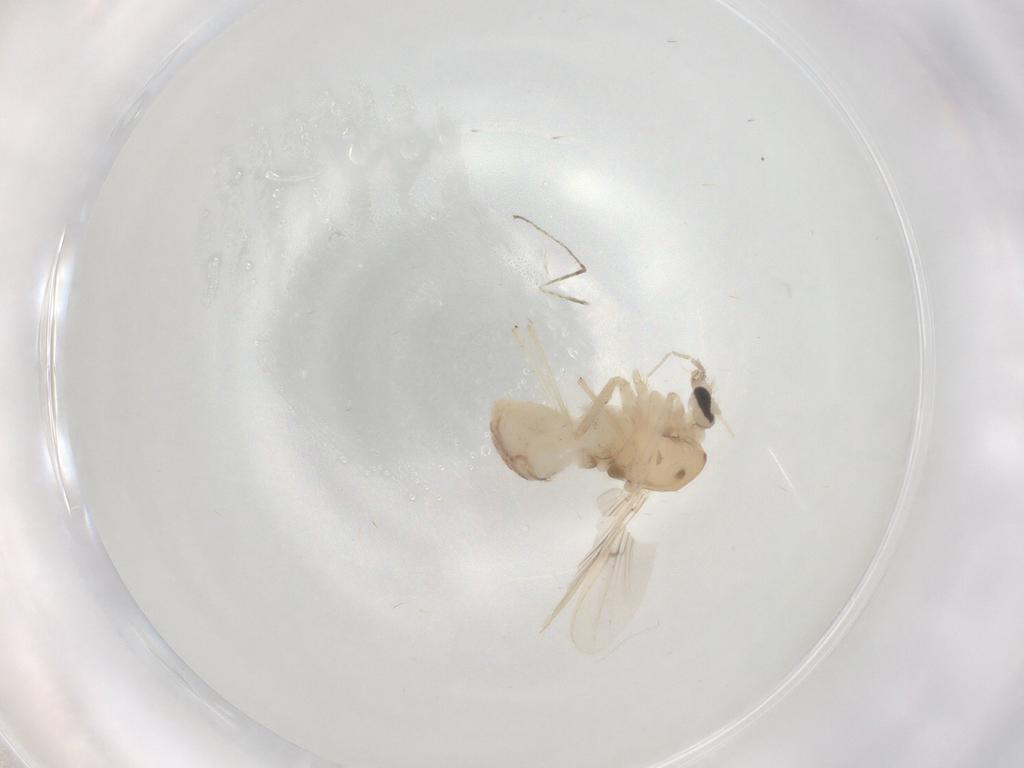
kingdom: Animalia
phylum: Arthropoda
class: Insecta
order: Diptera
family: Chironomidae
